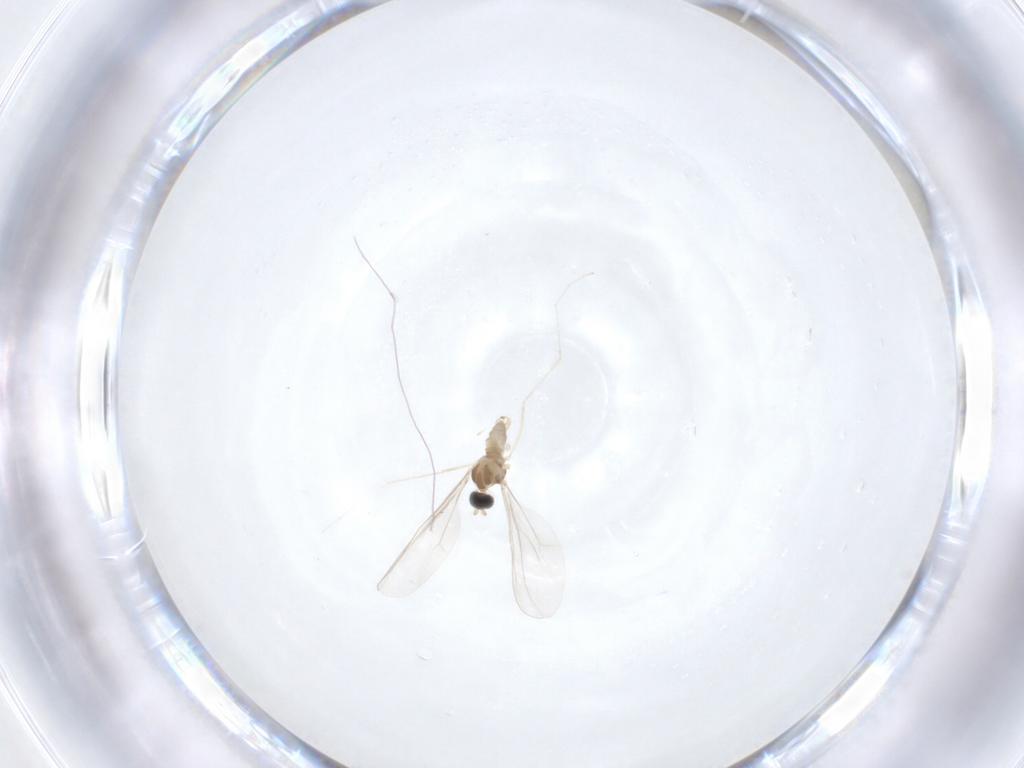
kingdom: Animalia
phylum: Arthropoda
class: Insecta
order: Diptera
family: Cecidomyiidae
